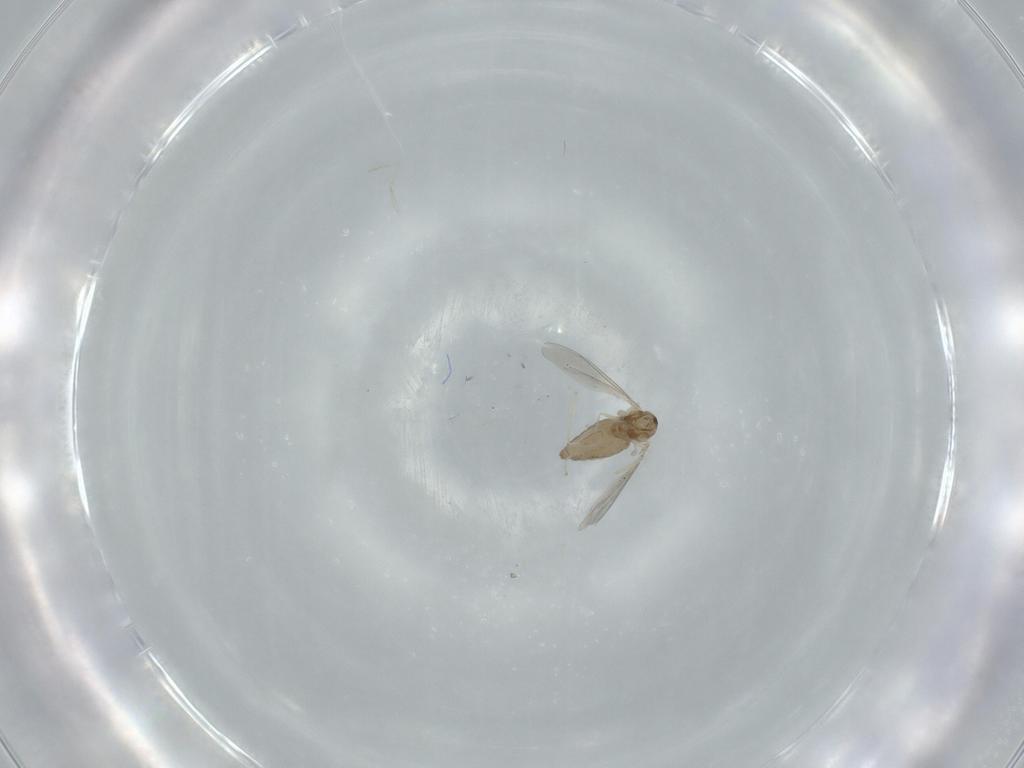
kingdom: Animalia
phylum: Arthropoda
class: Insecta
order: Diptera
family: Cecidomyiidae
